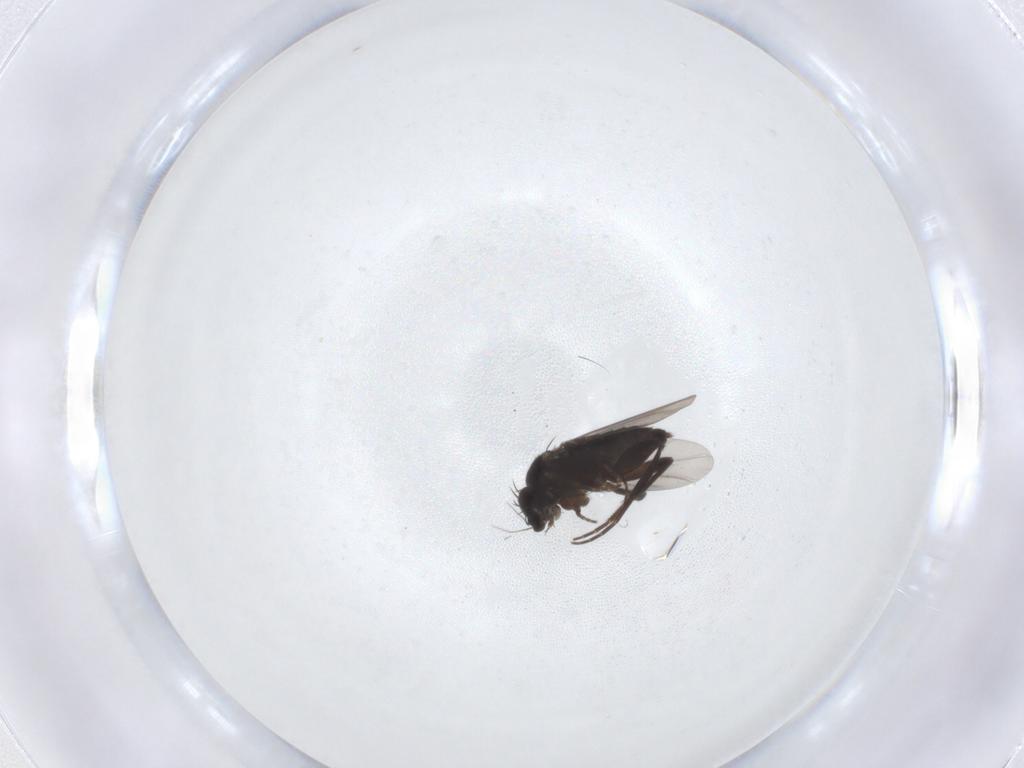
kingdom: Animalia
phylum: Arthropoda
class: Insecta
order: Diptera
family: Phoridae
